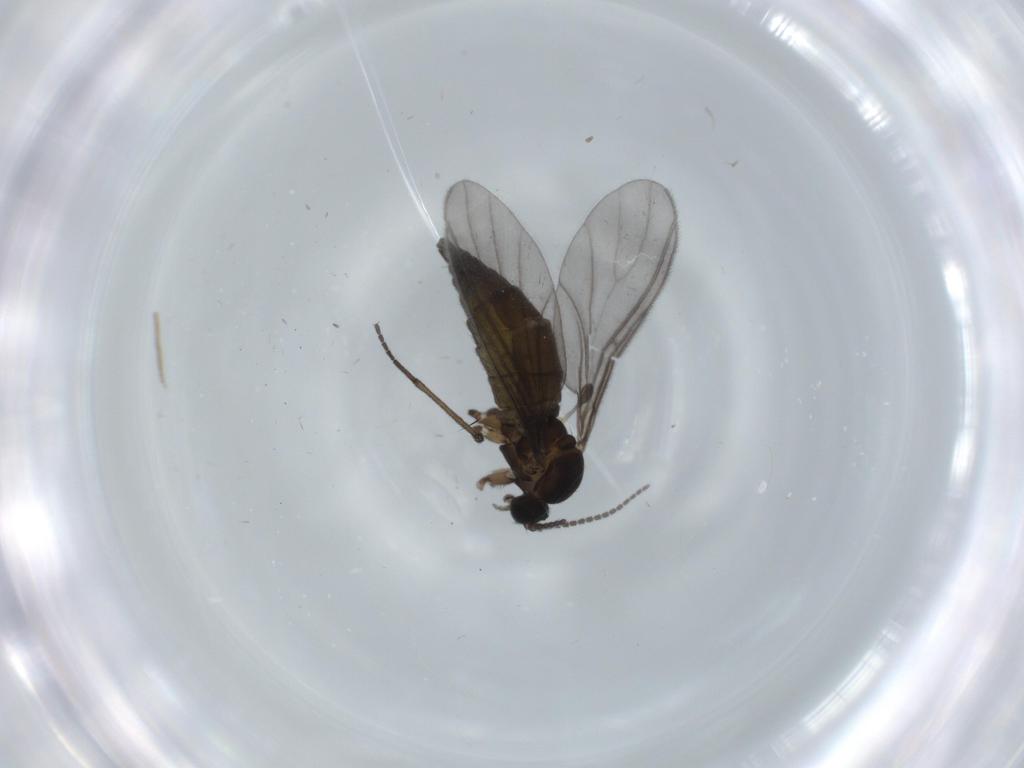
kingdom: Animalia
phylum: Arthropoda
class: Insecta
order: Diptera
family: Sciaridae
